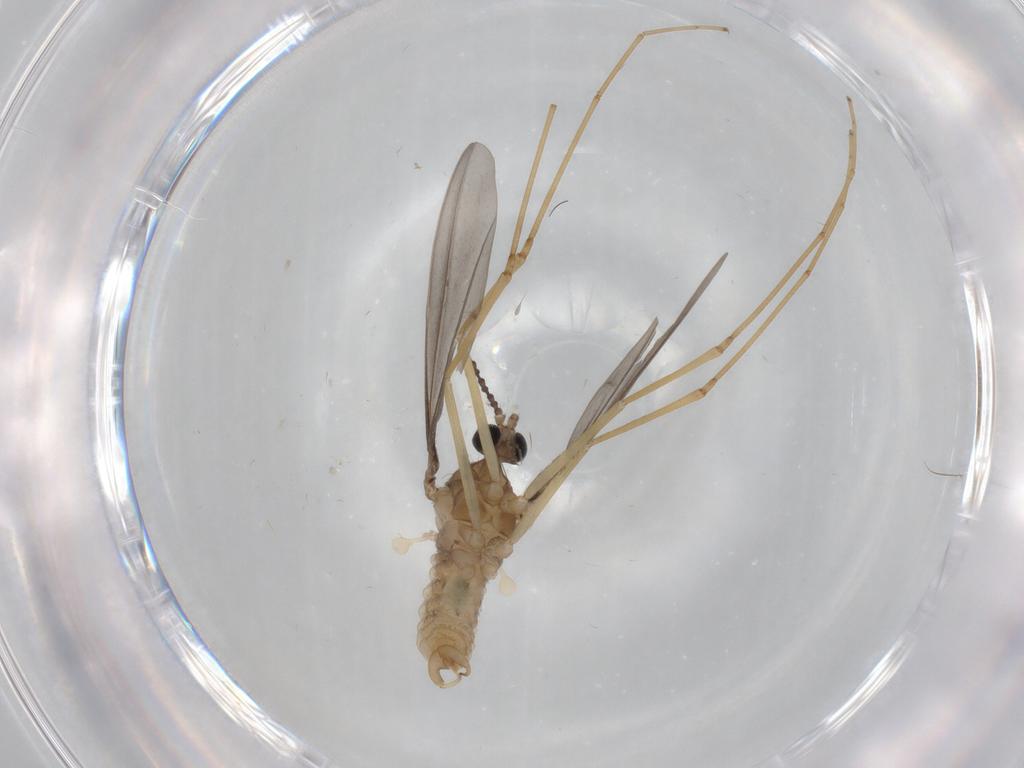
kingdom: Animalia
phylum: Arthropoda
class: Insecta
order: Diptera
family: Cecidomyiidae
